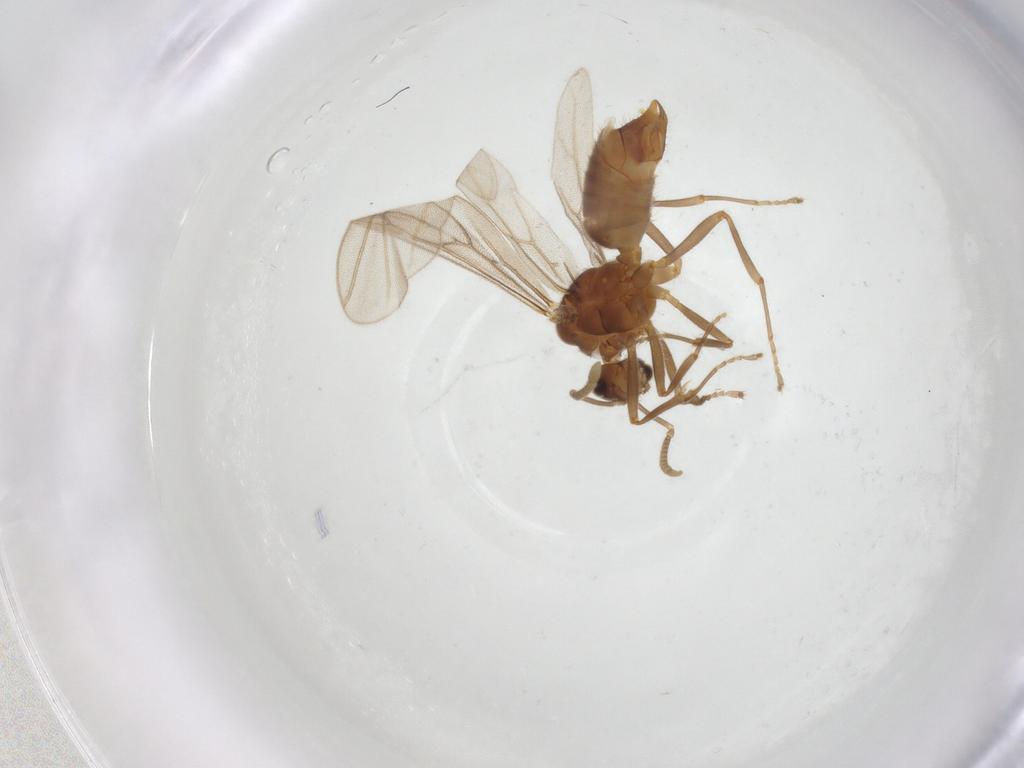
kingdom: Animalia
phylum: Arthropoda
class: Insecta
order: Hymenoptera
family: Formicidae
